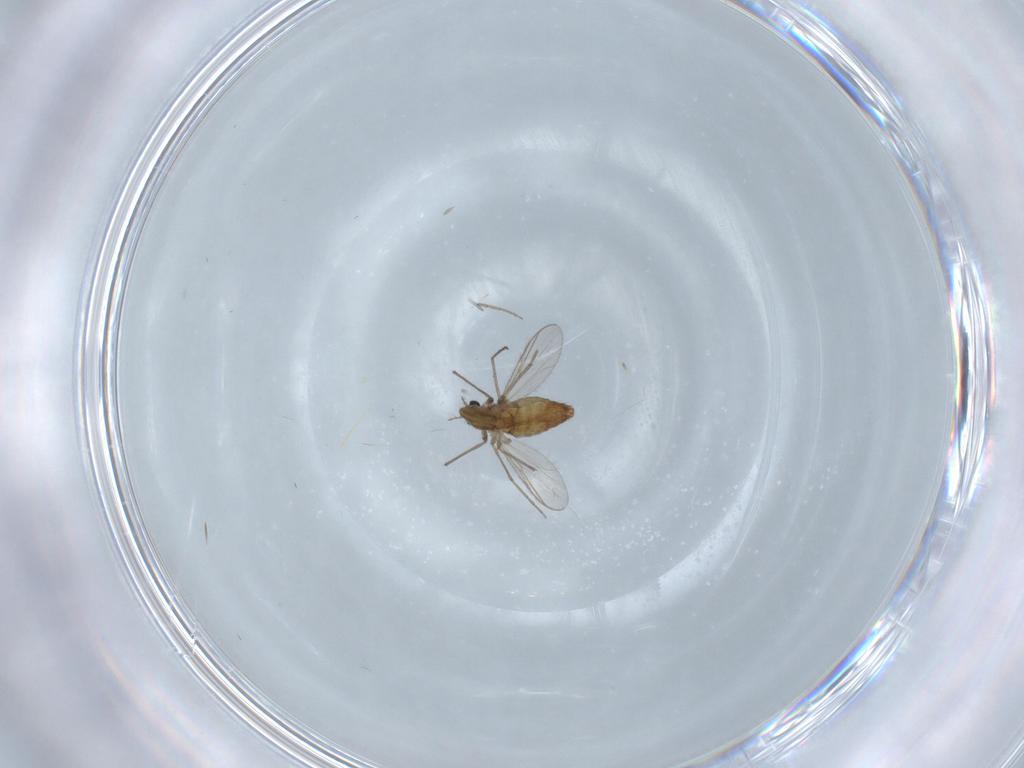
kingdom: Animalia
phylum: Arthropoda
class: Insecta
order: Diptera
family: Chironomidae
